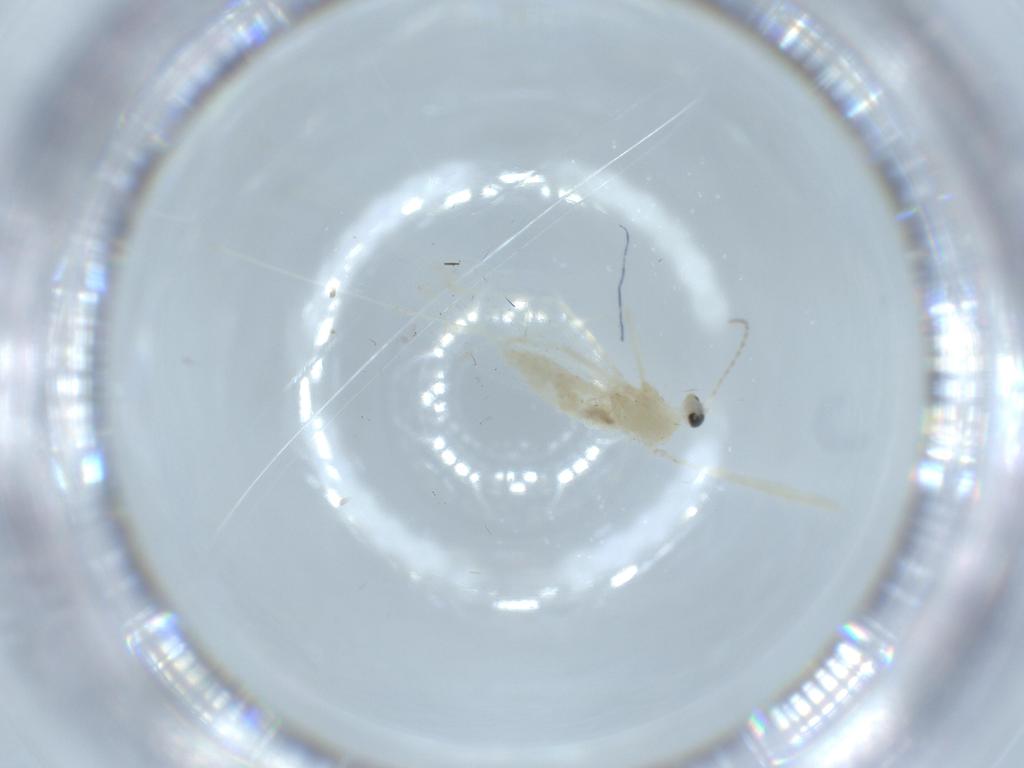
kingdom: Animalia
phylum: Arthropoda
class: Insecta
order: Diptera
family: Cecidomyiidae
